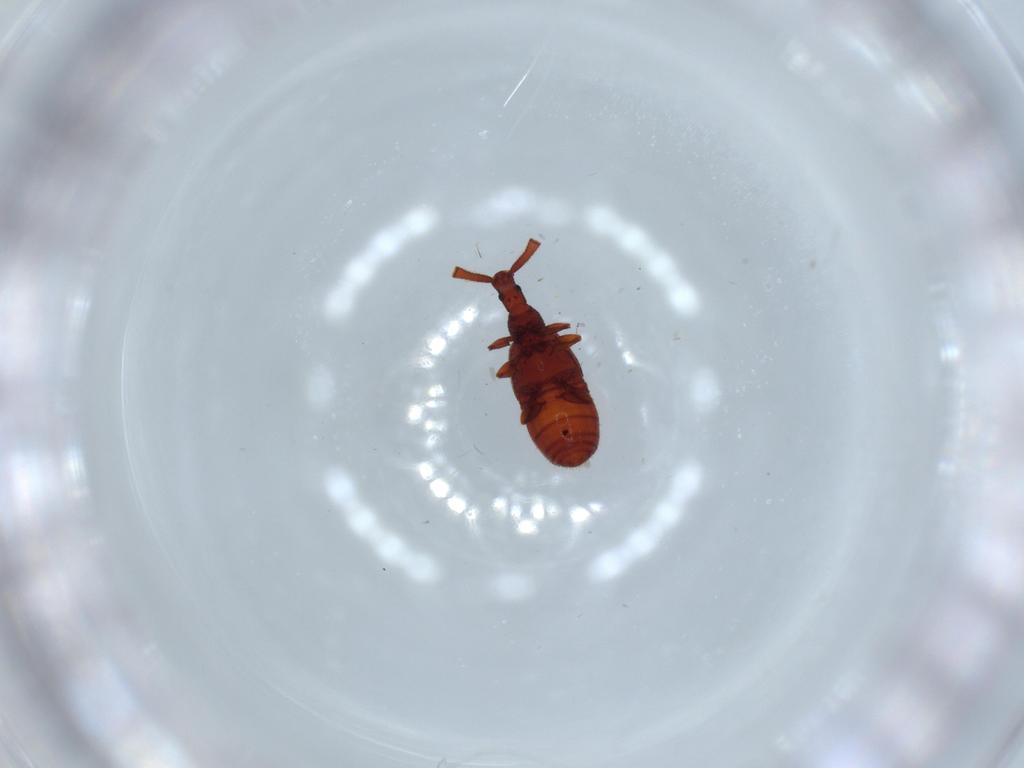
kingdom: Animalia
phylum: Arthropoda
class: Insecta
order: Coleoptera
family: Staphylinidae
